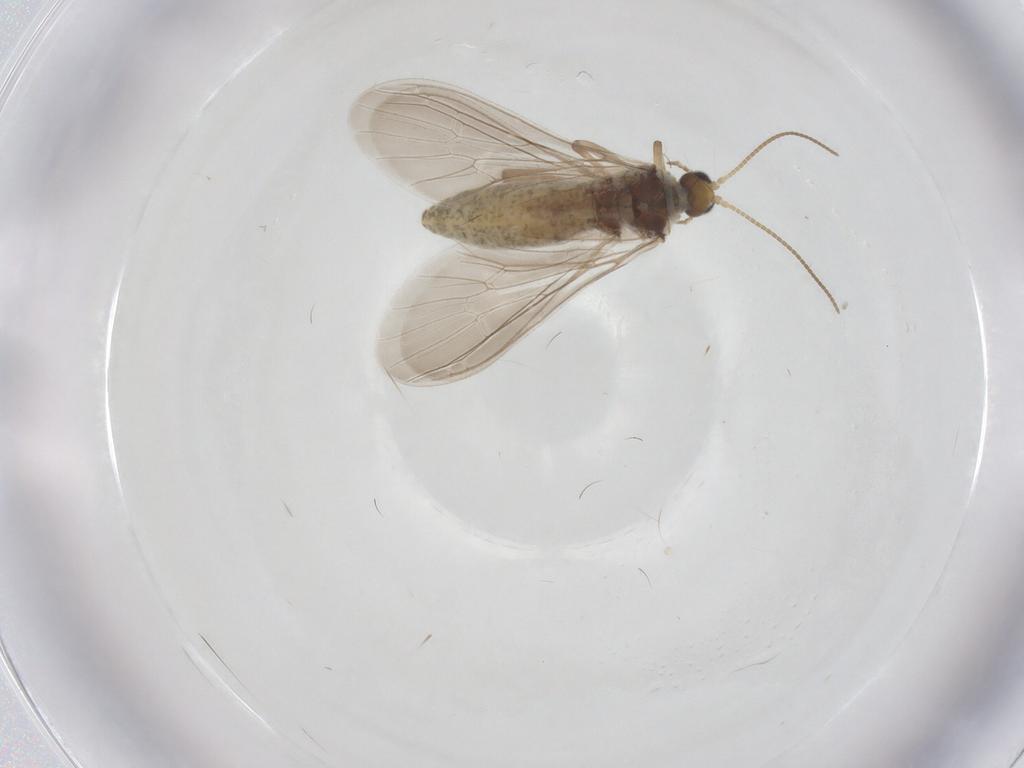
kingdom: Animalia
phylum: Arthropoda
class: Insecta
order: Neuroptera
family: Coniopterygidae
